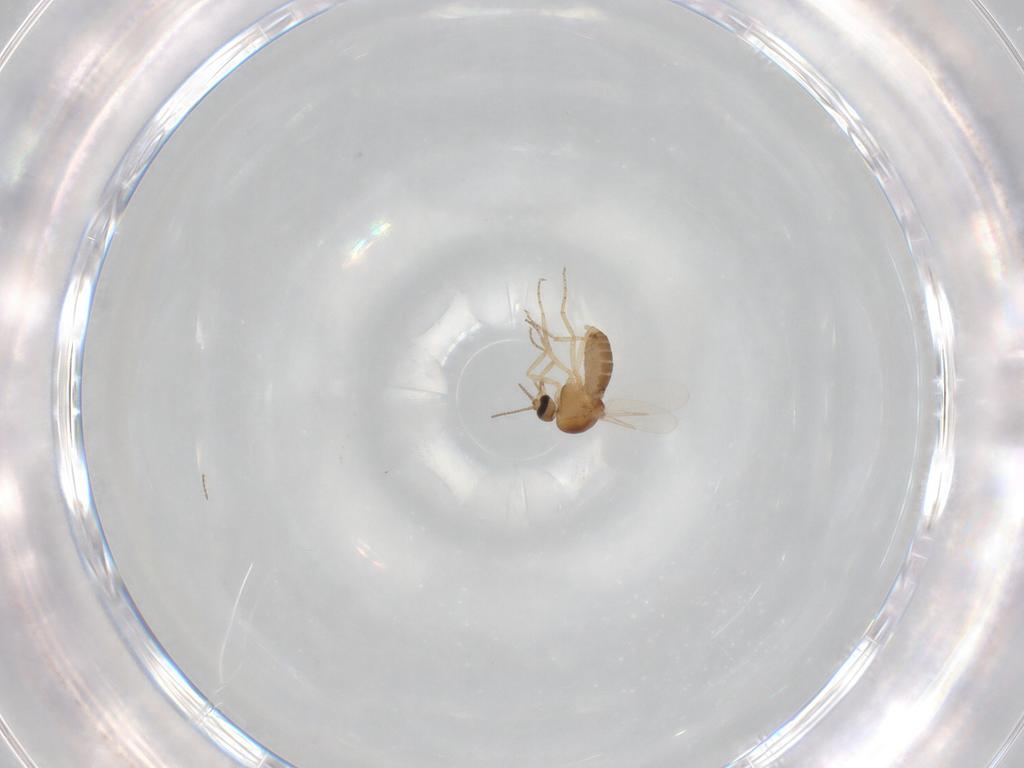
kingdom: Animalia
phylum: Arthropoda
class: Insecta
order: Diptera
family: Ceratopogonidae
